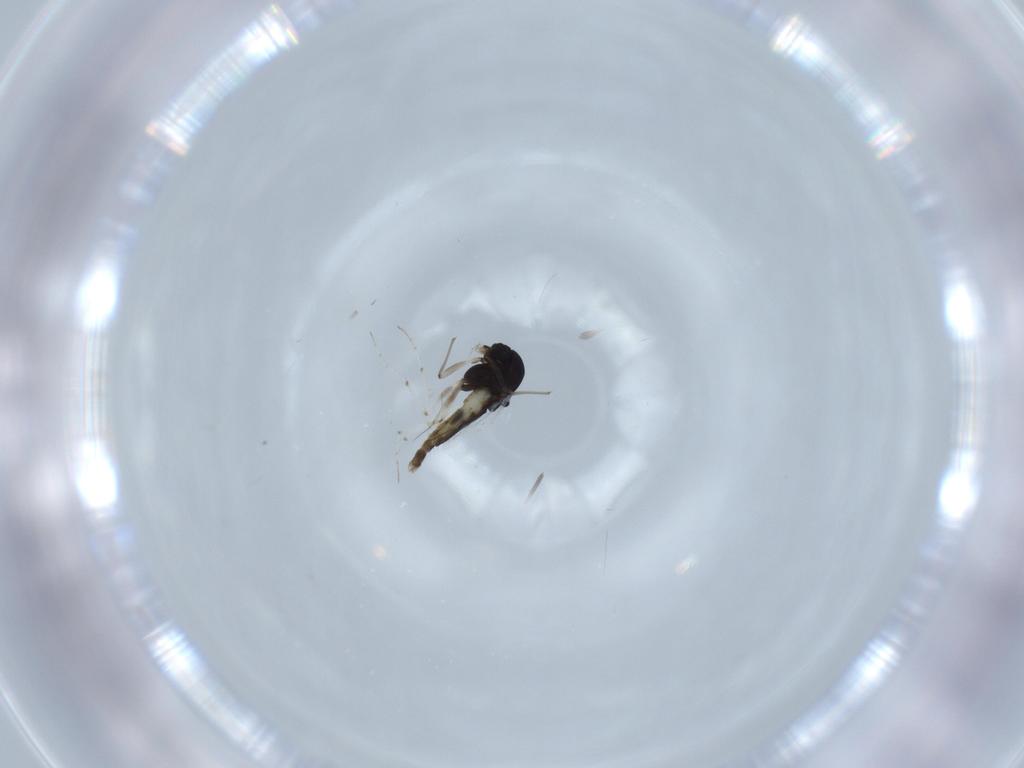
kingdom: Animalia
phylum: Arthropoda
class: Insecta
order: Diptera
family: Chironomidae
